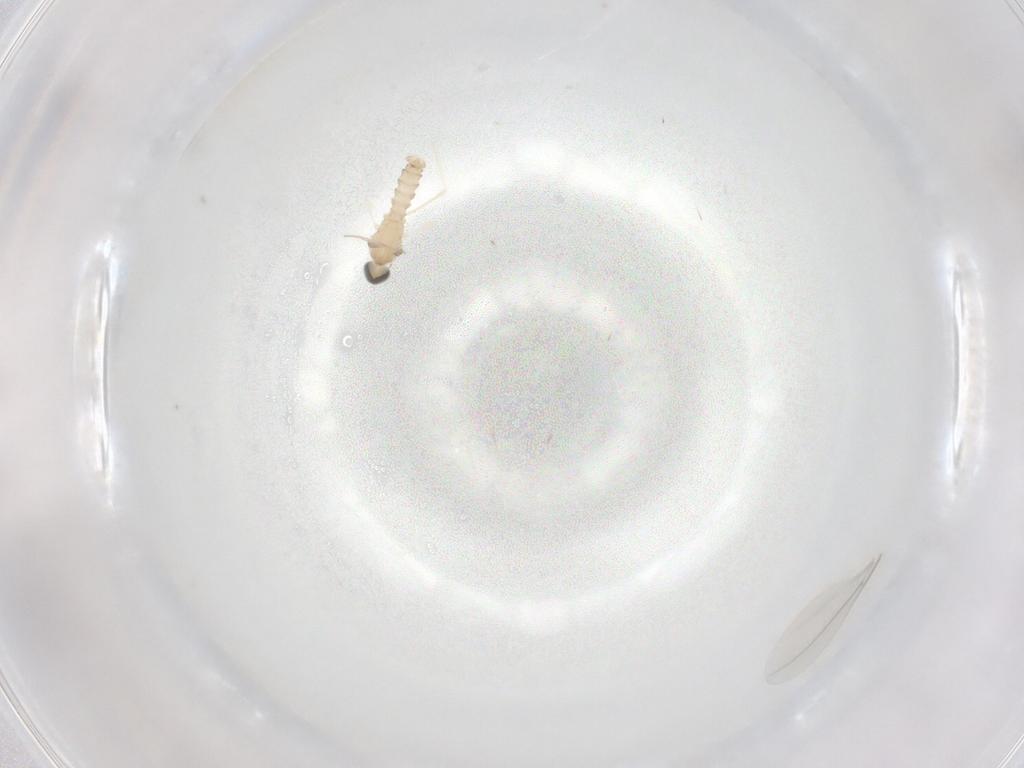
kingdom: Animalia
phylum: Arthropoda
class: Insecta
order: Diptera
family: Cecidomyiidae
